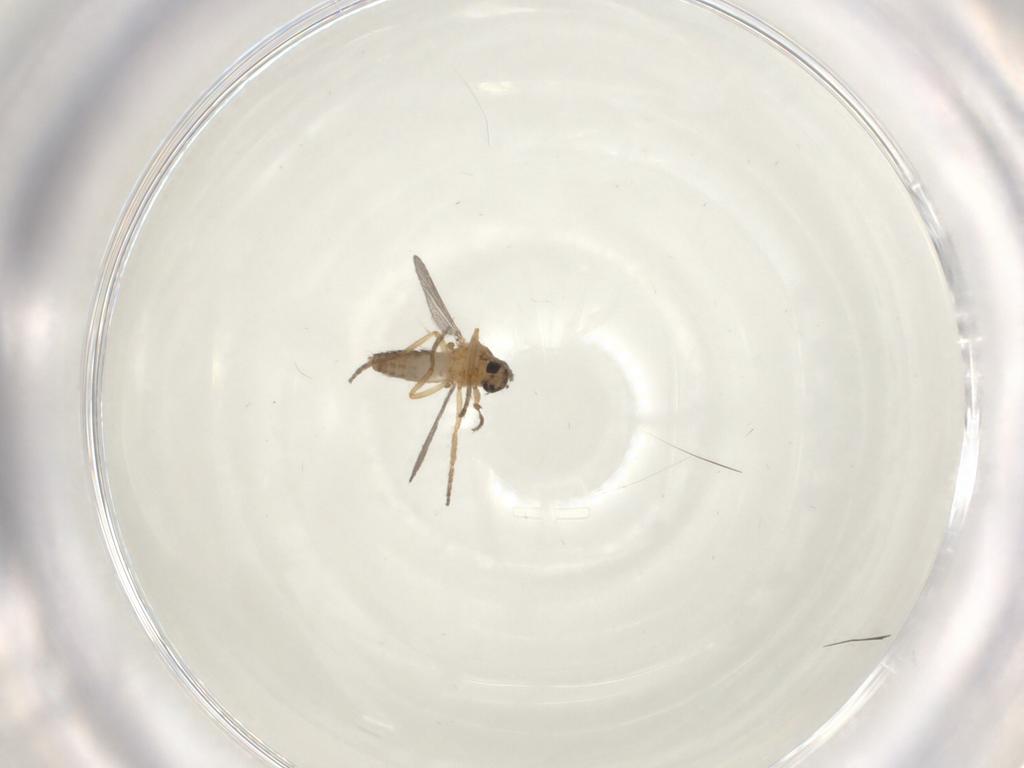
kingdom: Animalia
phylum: Arthropoda
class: Insecta
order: Diptera
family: Ceratopogonidae
